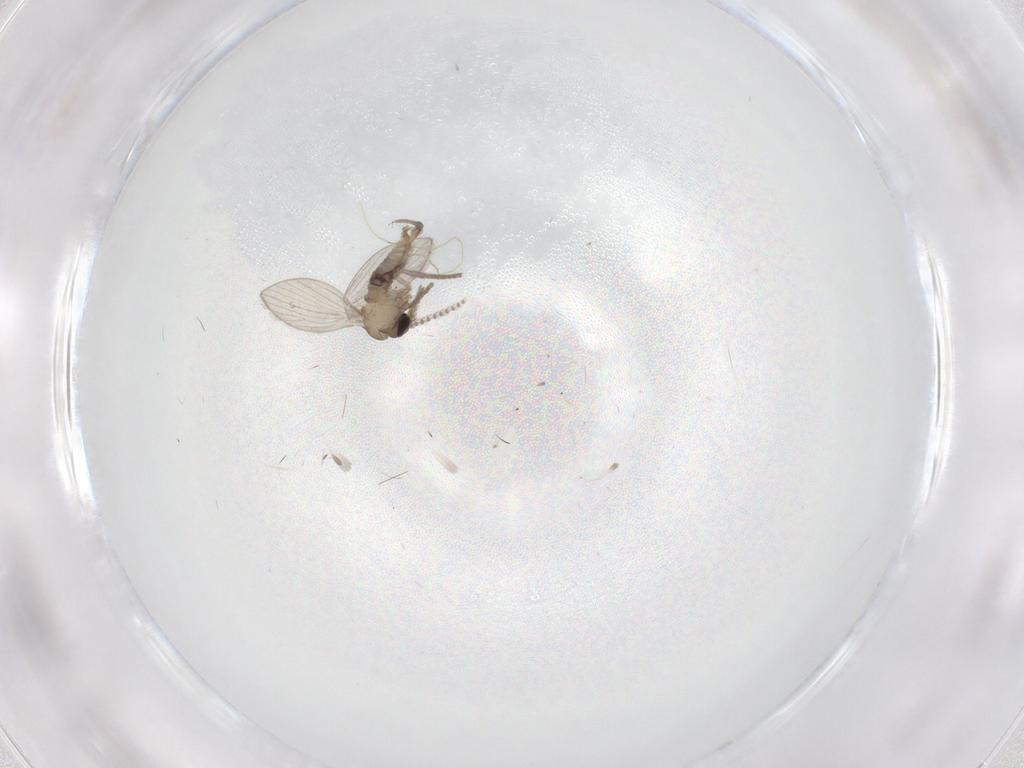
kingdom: Animalia
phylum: Arthropoda
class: Insecta
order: Diptera
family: Psychodidae
